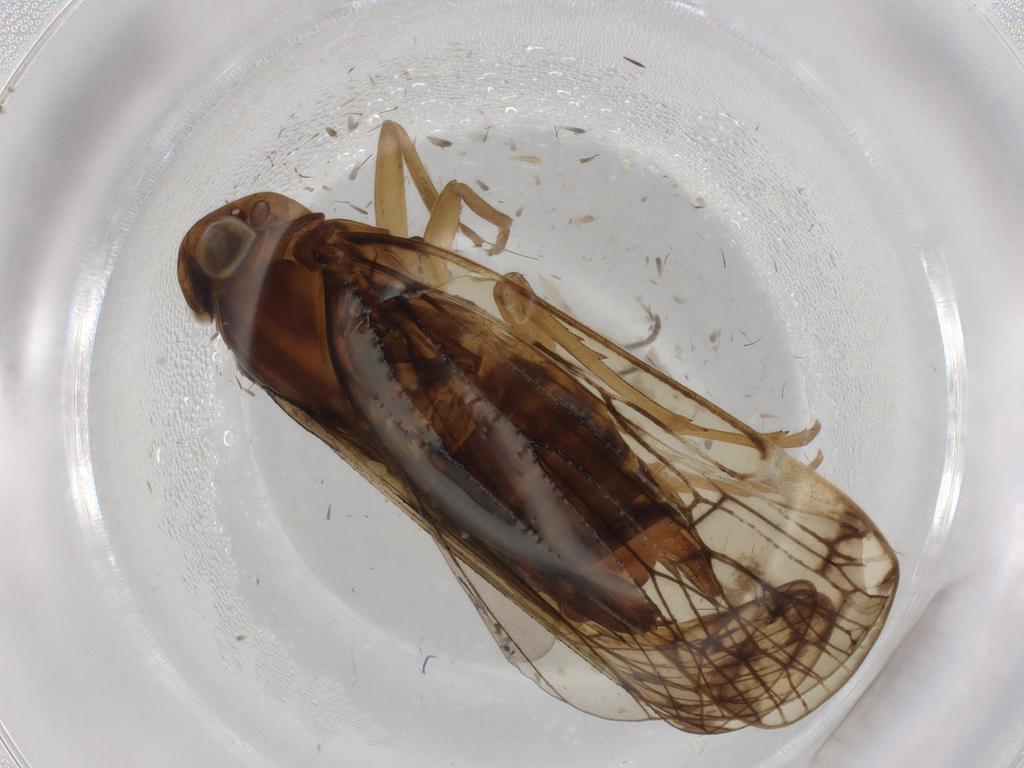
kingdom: Animalia
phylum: Arthropoda
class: Insecta
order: Hemiptera
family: Cixiidae
